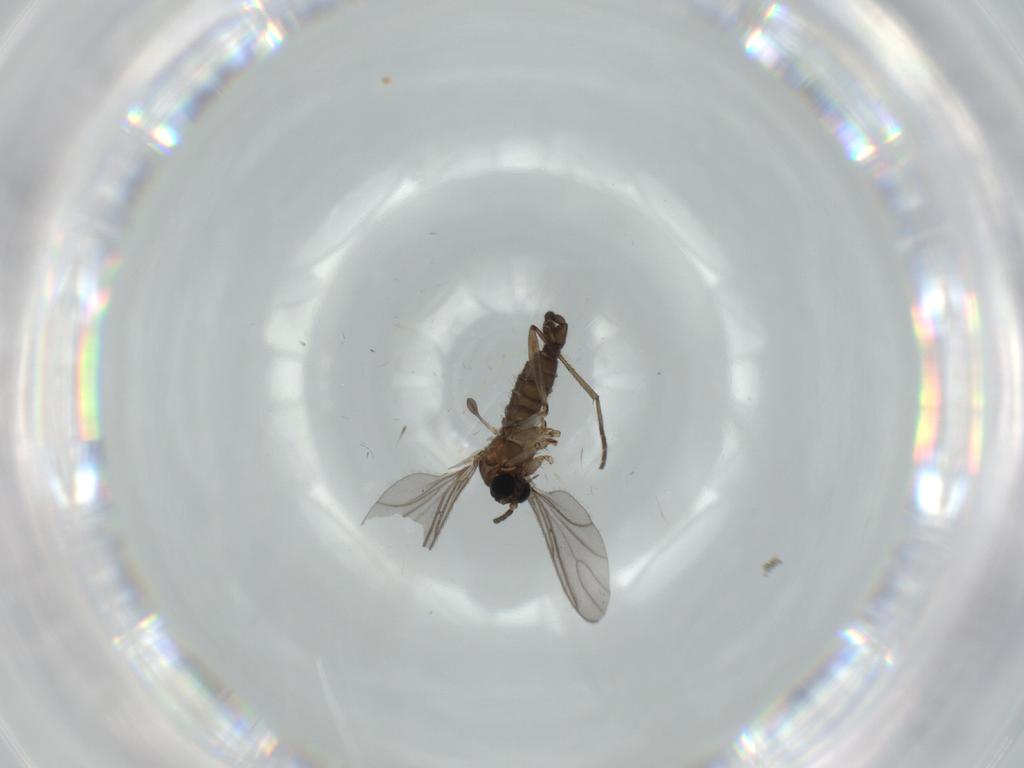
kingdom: Animalia
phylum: Arthropoda
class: Insecta
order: Diptera
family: Cecidomyiidae
